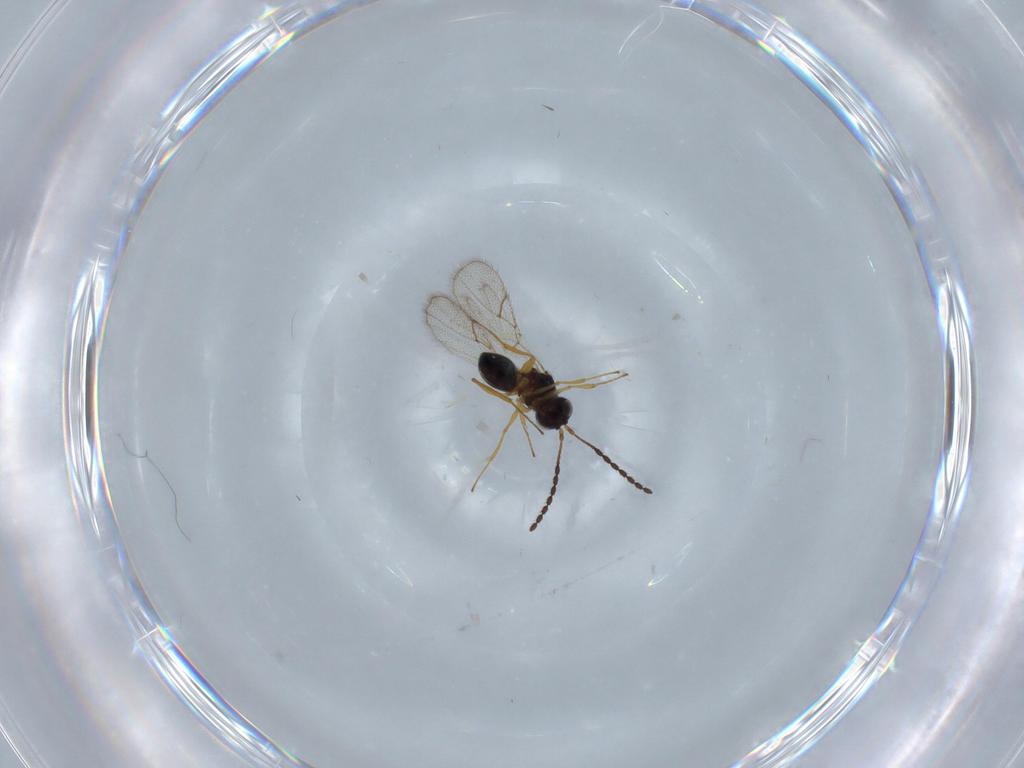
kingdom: Animalia
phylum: Arthropoda
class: Insecta
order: Hymenoptera
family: Figitidae
